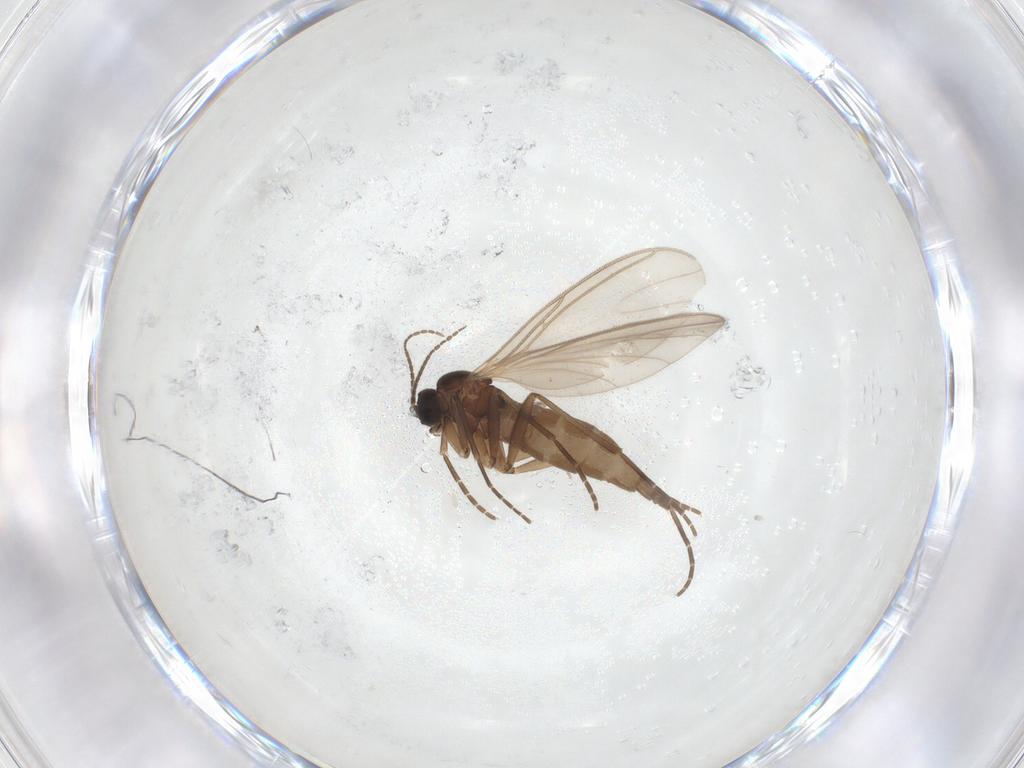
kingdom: Animalia
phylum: Arthropoda
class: Insecta
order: Diptera
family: Sciaridae
